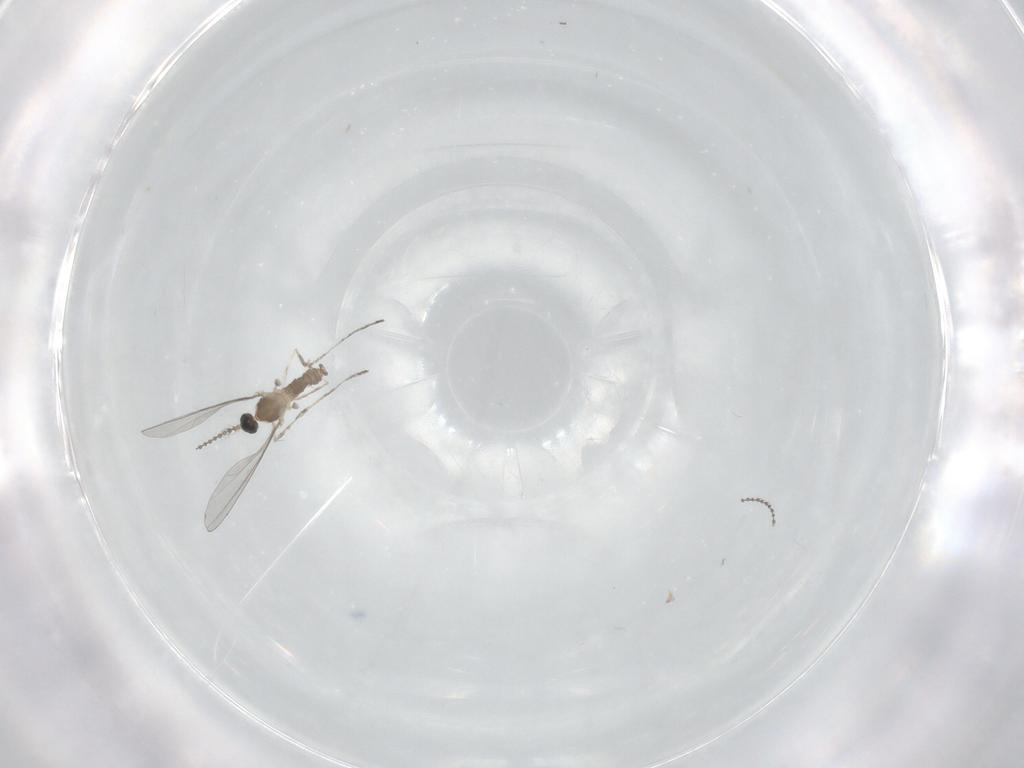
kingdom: Animalia
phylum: Arthropoda
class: Insecta
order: Diptera
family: Cecidomyiidae
